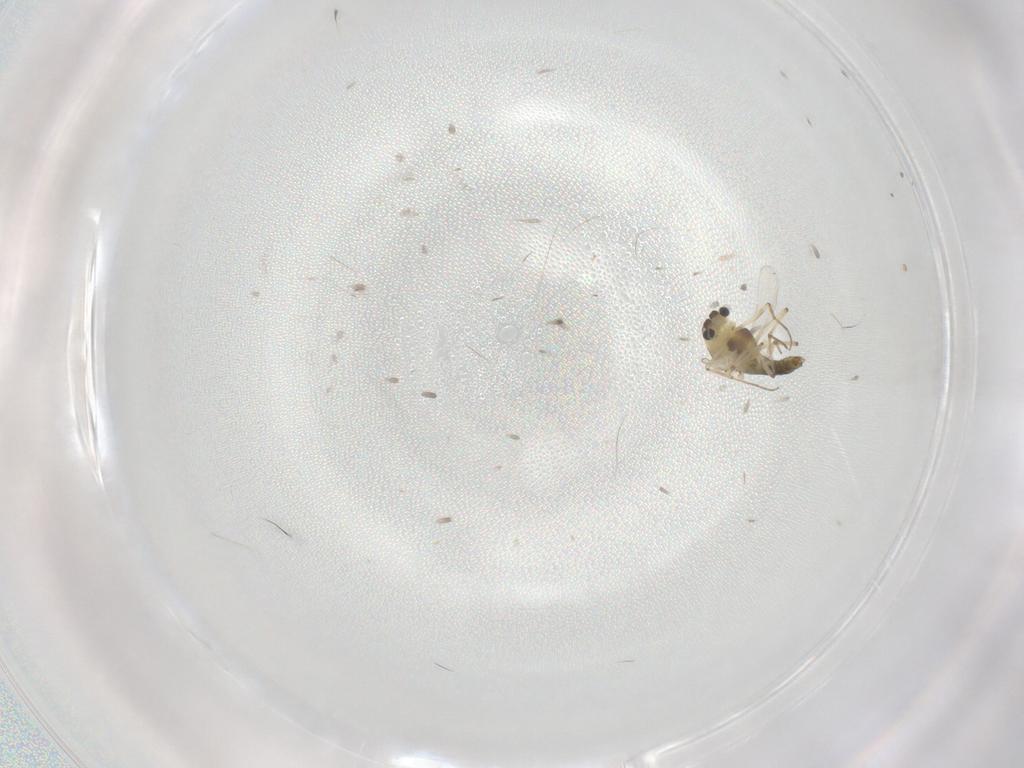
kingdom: Animalia
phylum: Arthropoda
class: Insecta
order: Diptera
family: Chironomidae
